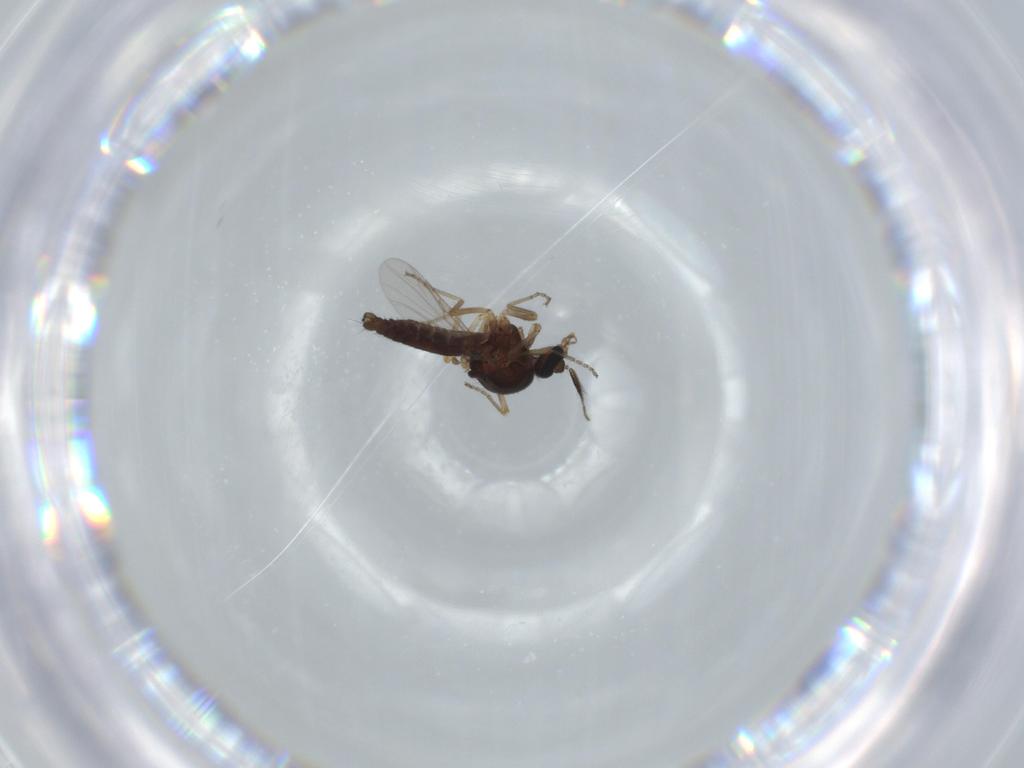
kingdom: Animalia
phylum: Arthropoda
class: Insecta
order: Diptera
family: Ceratopogonidae
